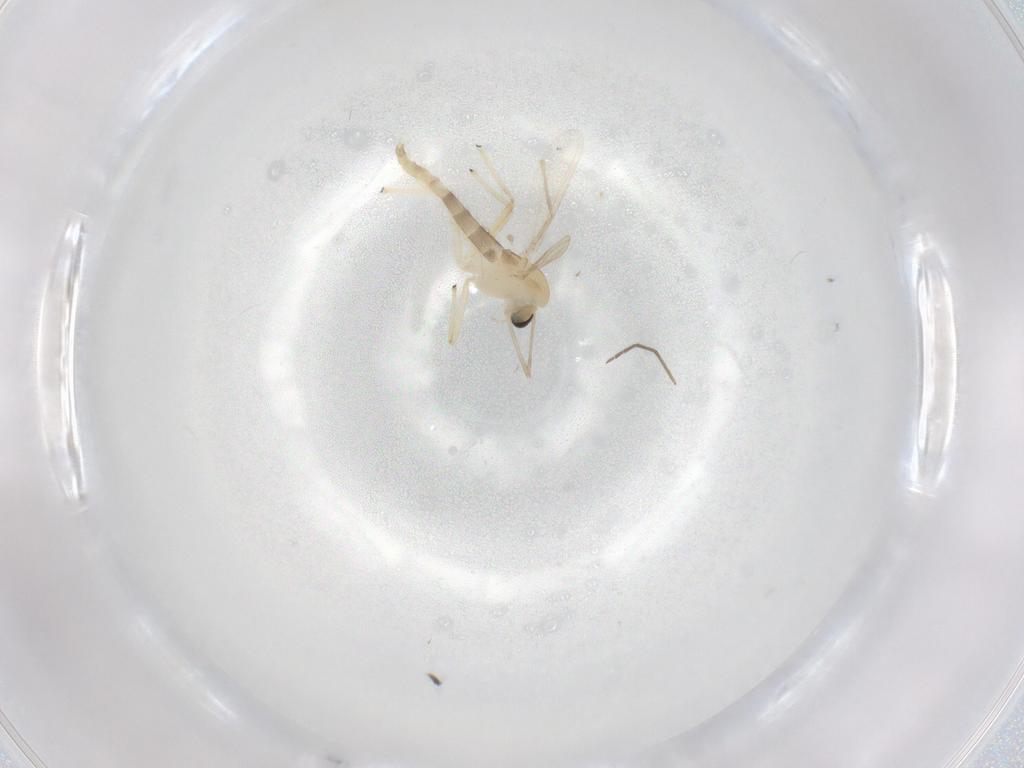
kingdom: Animalia
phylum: Arthropoda
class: Insecta
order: Diptera
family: Chironomidae
